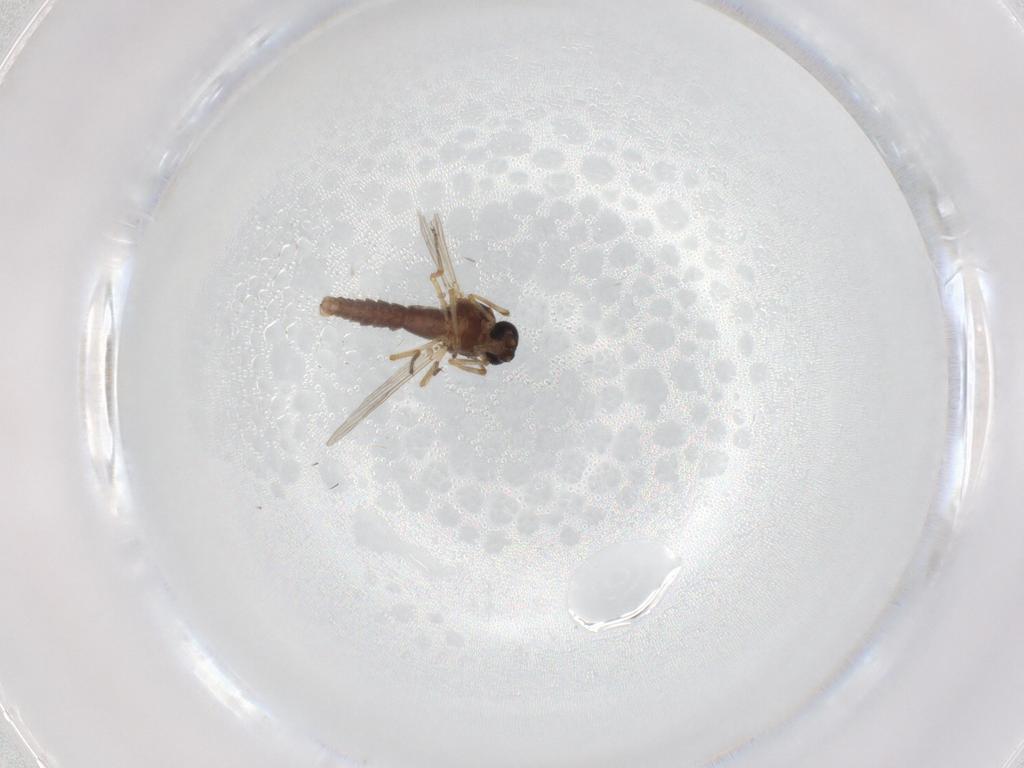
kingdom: Animalia
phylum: Arthropoda
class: Insecta
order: Diptera
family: Ceratopogonidae
